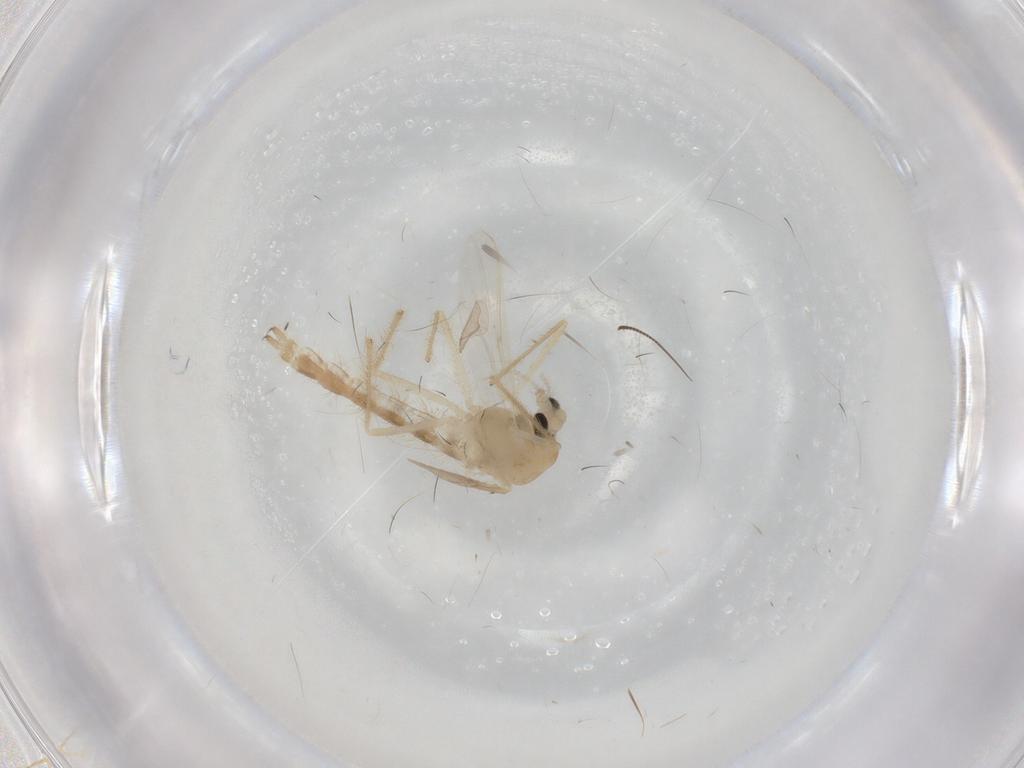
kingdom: Animalia
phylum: Arthropoda
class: Insecta
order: Diptera
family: Chironomidae
